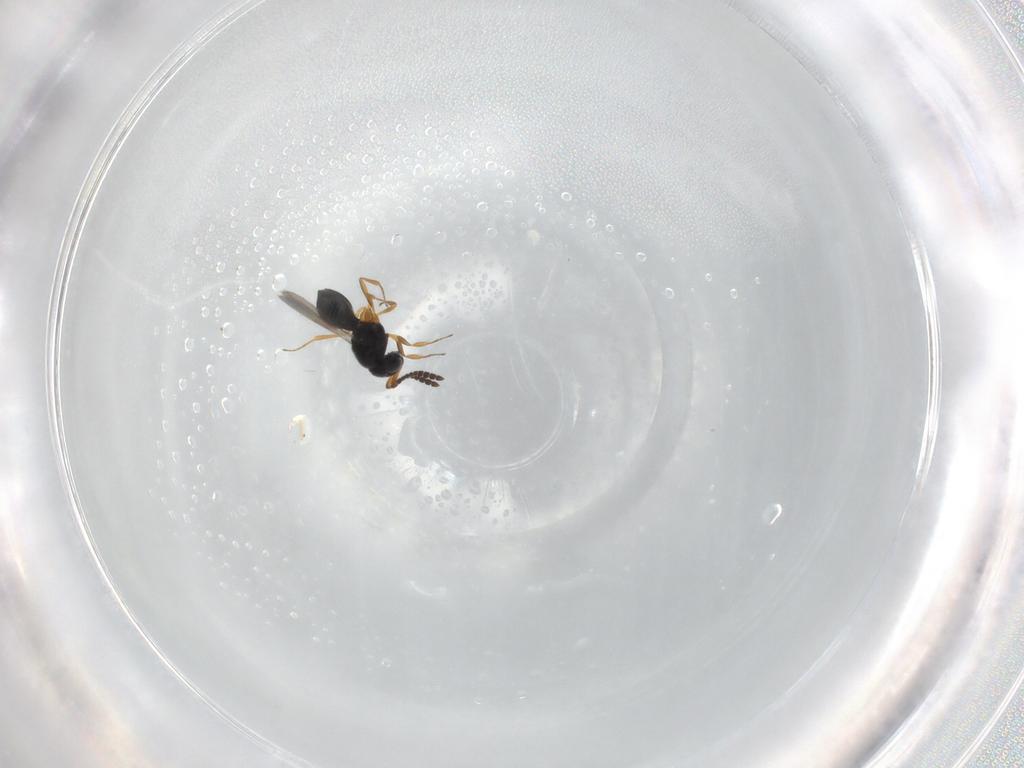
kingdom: Animalia
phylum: Arthropoda
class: Insecta
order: Hymenoptera
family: Scelionidae
